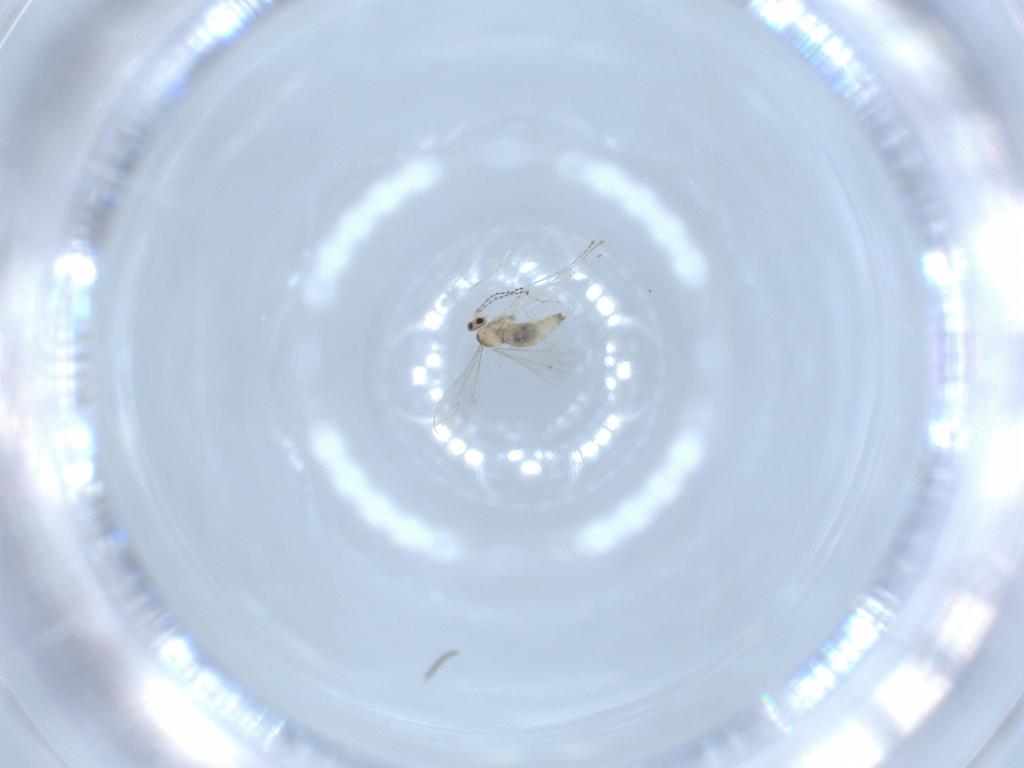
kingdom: Animalia
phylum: Arthropoda
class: Insecta
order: Diptera
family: Cecidomyiidae
